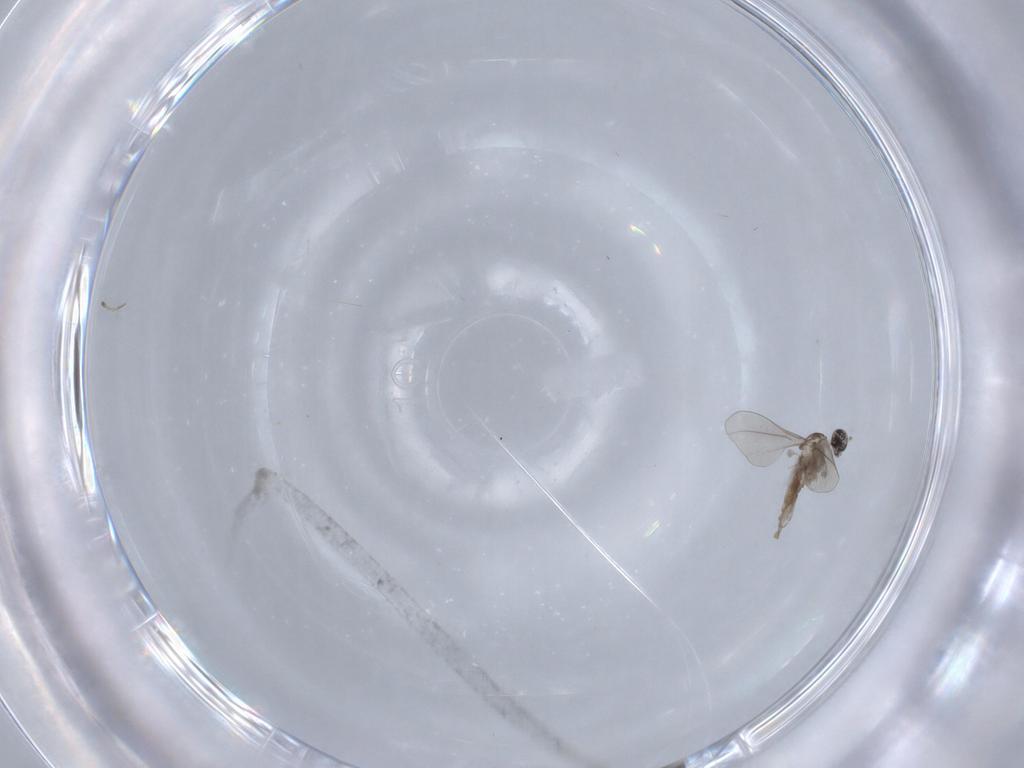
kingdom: Animalia
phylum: Arthropoda
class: Insecta
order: Diptera
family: Chironomidae
